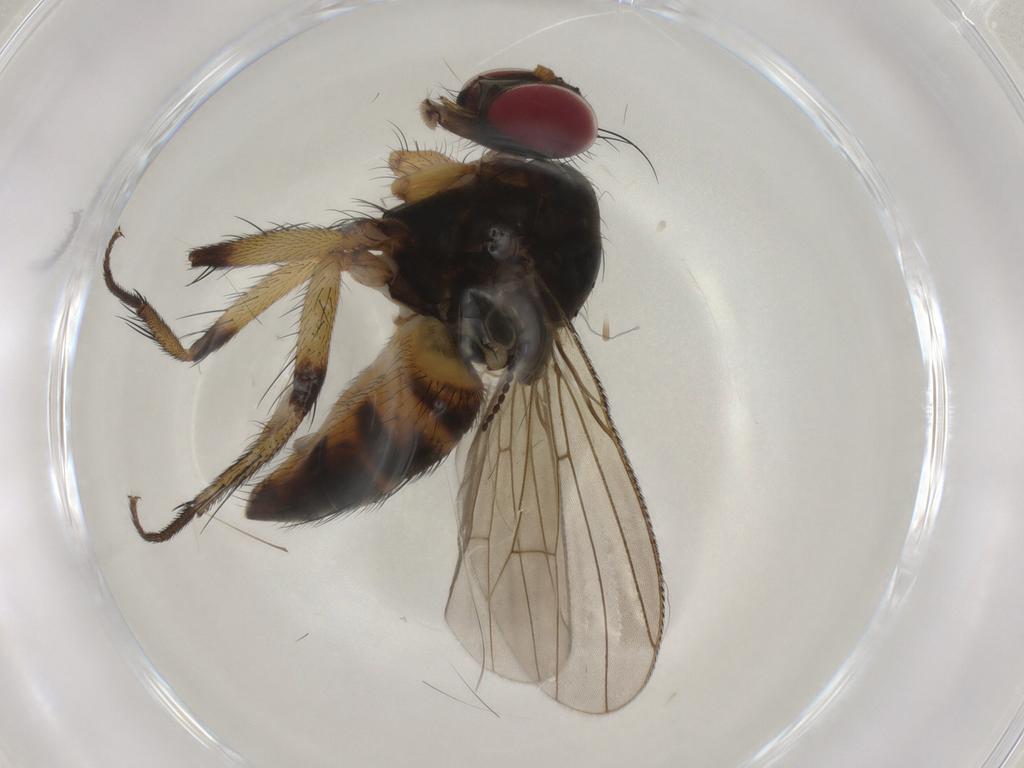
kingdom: Animalia
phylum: Arthropoda
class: Insecta
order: Diptera
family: Muscidae
